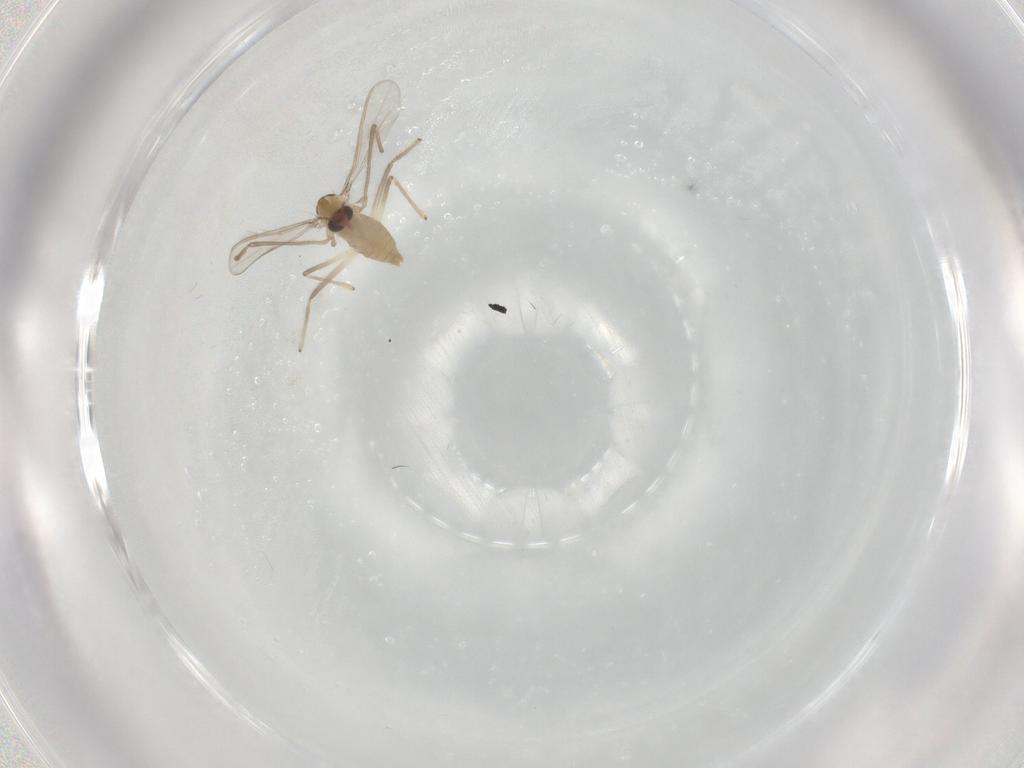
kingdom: Animalia
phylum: Arthropoda
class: Insecta
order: Diptera
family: Chironomidae
